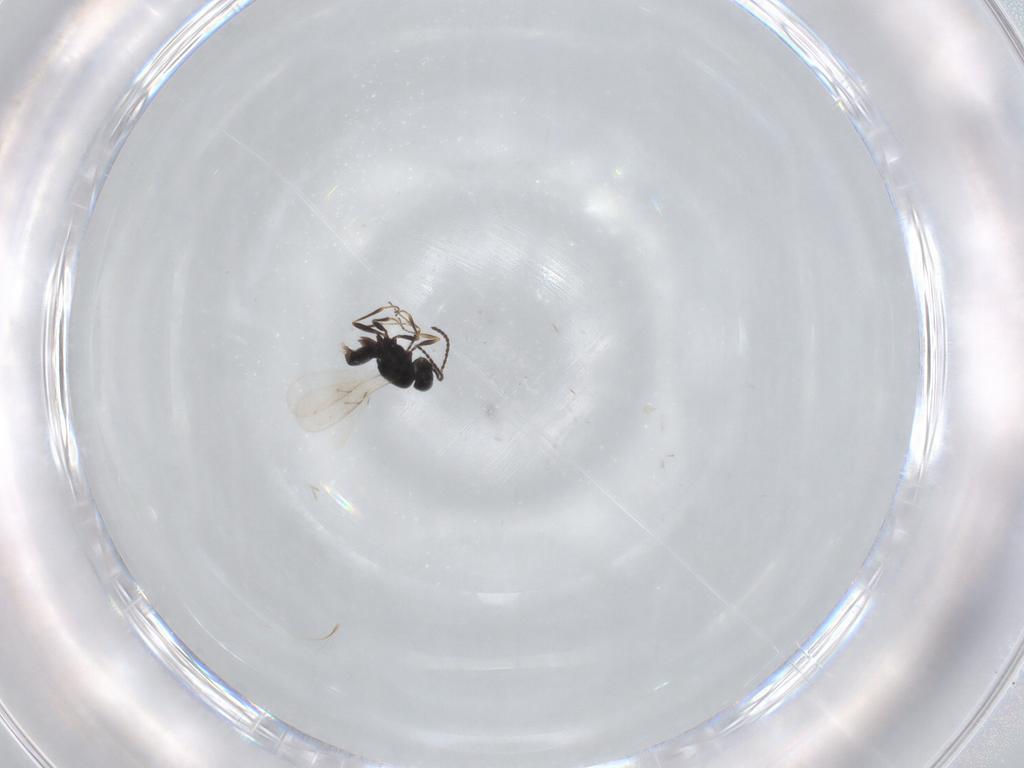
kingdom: Animalia
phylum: Arthropoda
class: Insecta
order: Hymenoptera
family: Scelionidae
